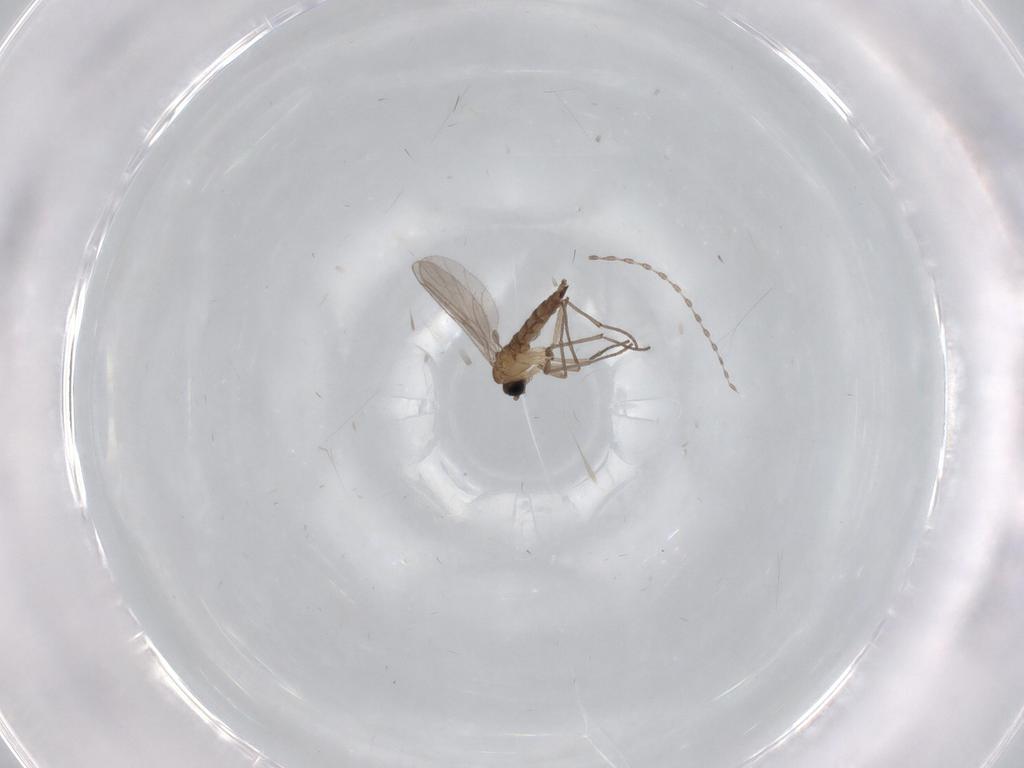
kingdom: Animalia
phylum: Arthropoda
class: Insecta
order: Diptera
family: Sciaridae
